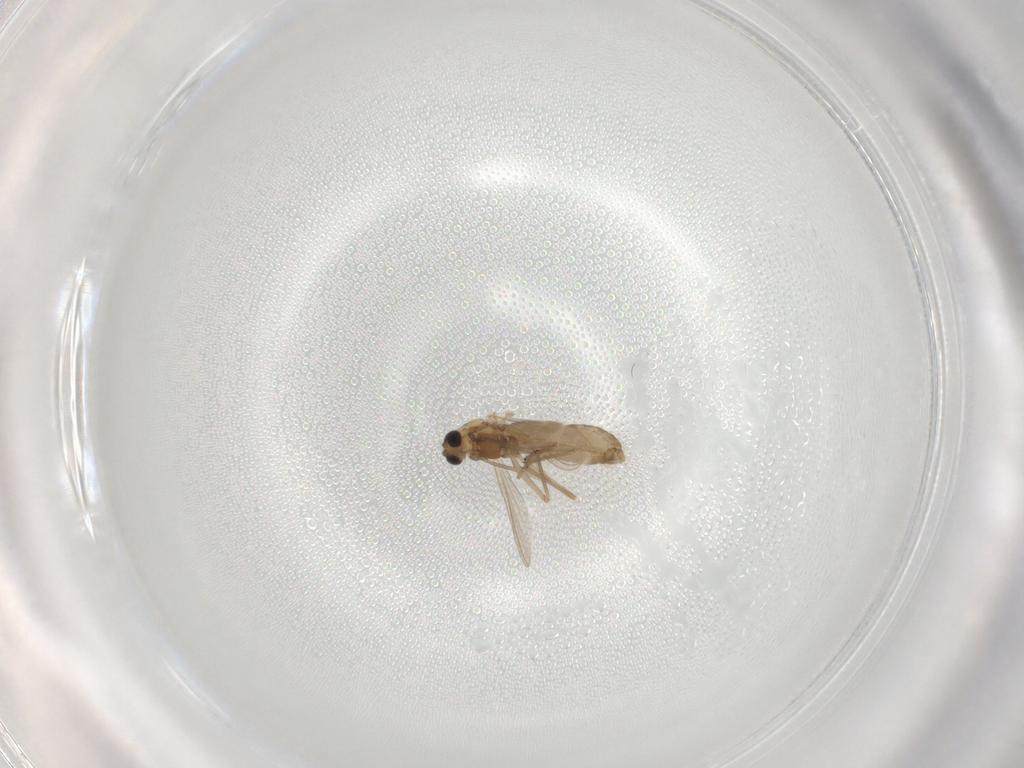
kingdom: Animalia
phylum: Arthropoda
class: Insecta
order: Diptera
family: Chironomidae
